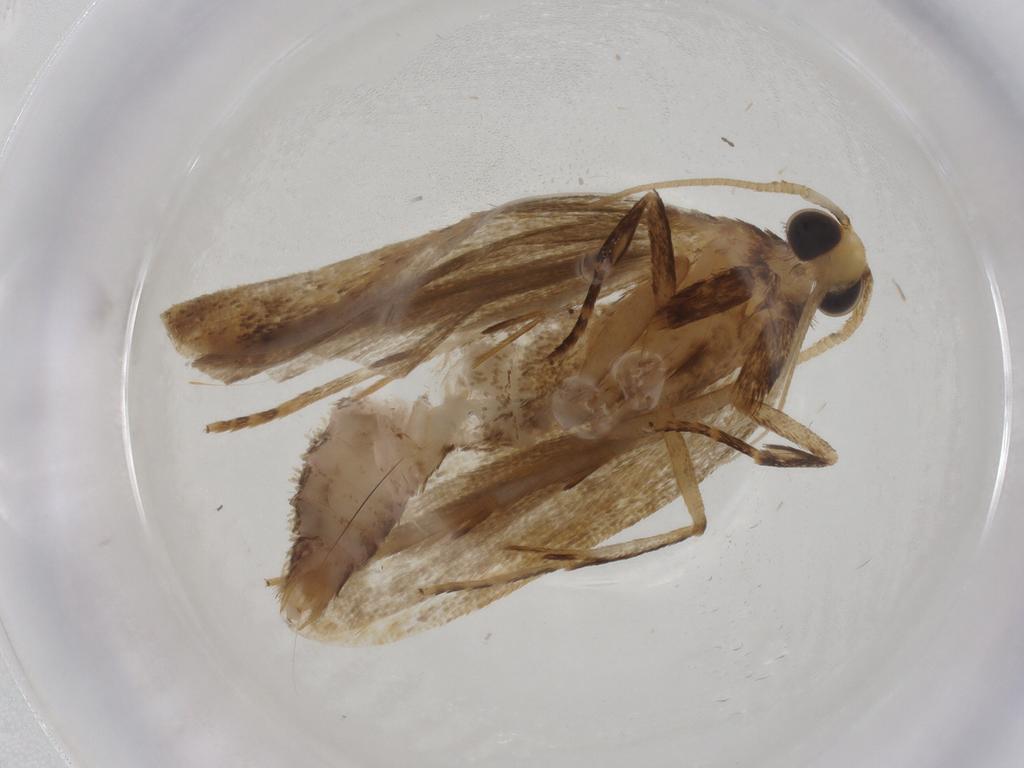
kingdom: Animalia
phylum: Arthropoda
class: Insecta
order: Lepidoptera
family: Autostichidae
